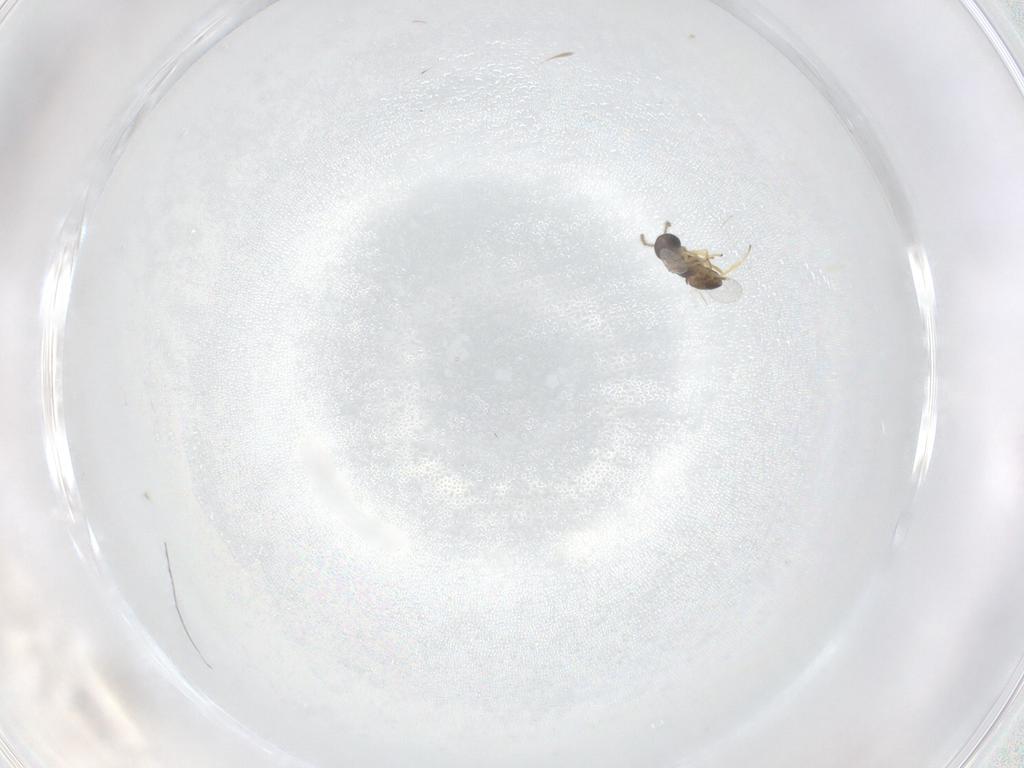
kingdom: Animalia
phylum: Arthropoda
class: Insecta
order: Hymenoptera
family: Encyrtidae
